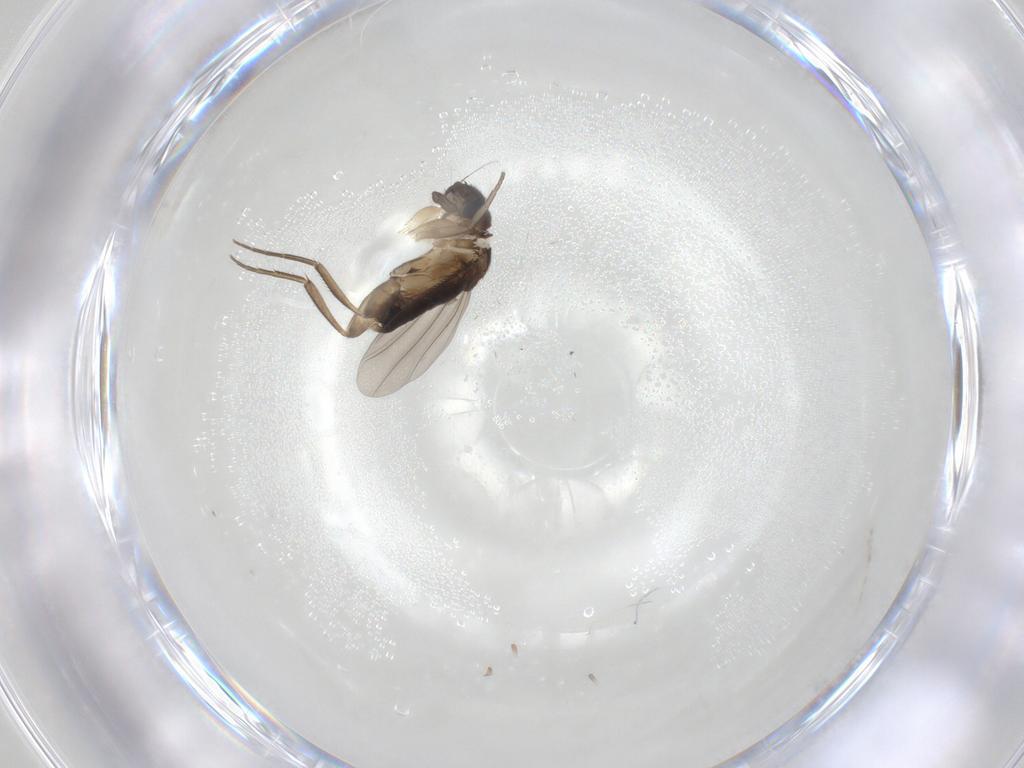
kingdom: Animalia
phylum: Arthropoda
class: Insecta
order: Diptera
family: Phoridae
